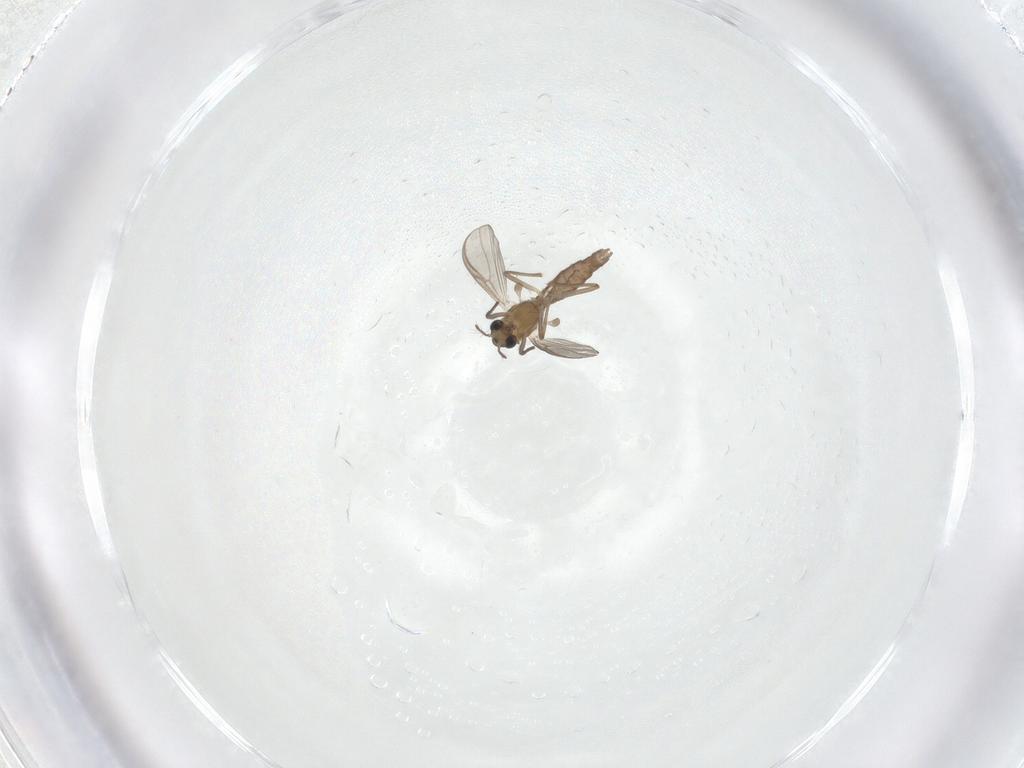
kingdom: Animalia
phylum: Arthropoda
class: Insecta
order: Diptera
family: Chironomidae
